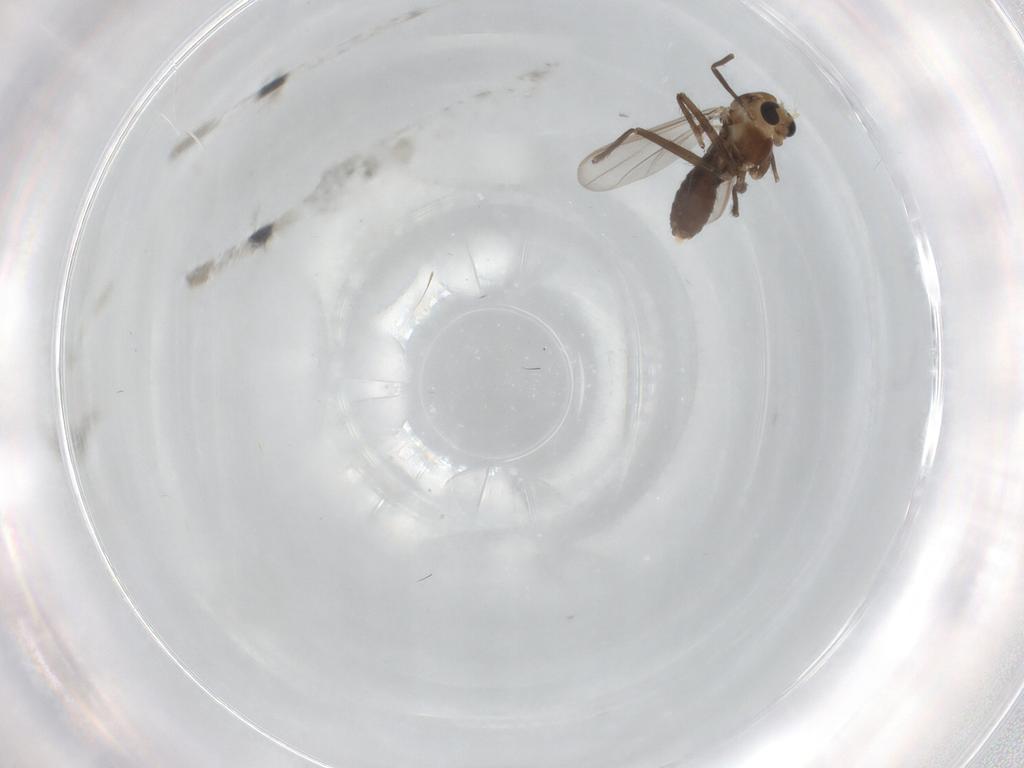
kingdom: Animalia
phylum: Arthropoda
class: Insecta
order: Diptera
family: Chironomidae
